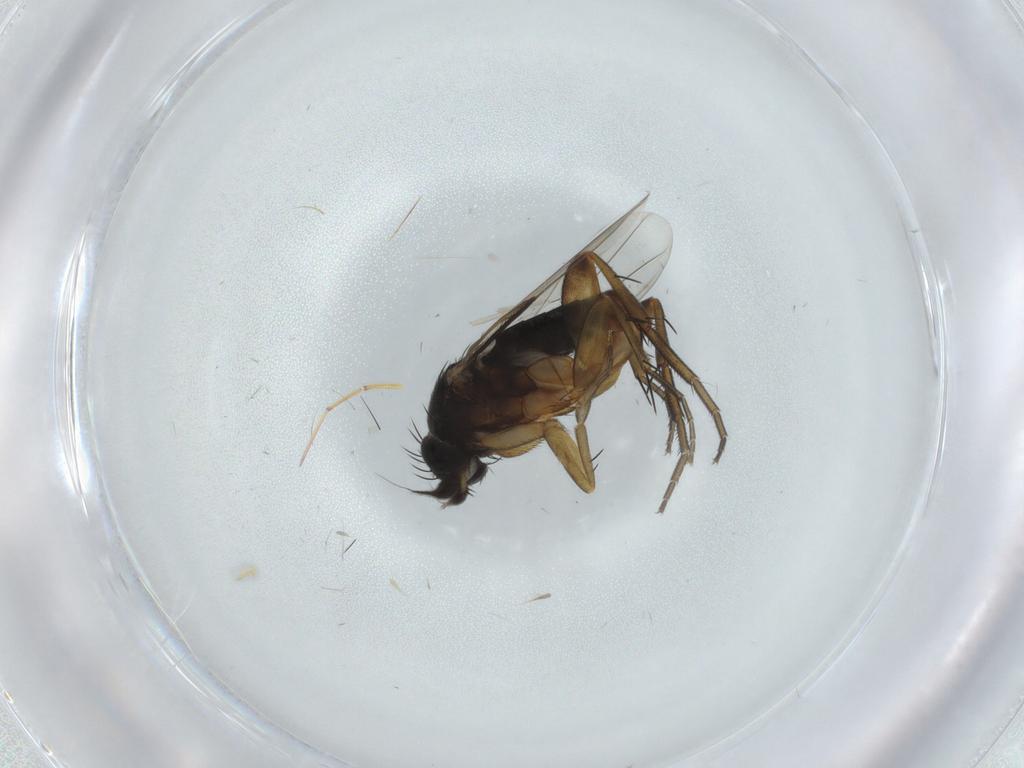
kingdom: Animalia
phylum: Arthropoda
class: Insecta
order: Diptera
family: Phoridae
